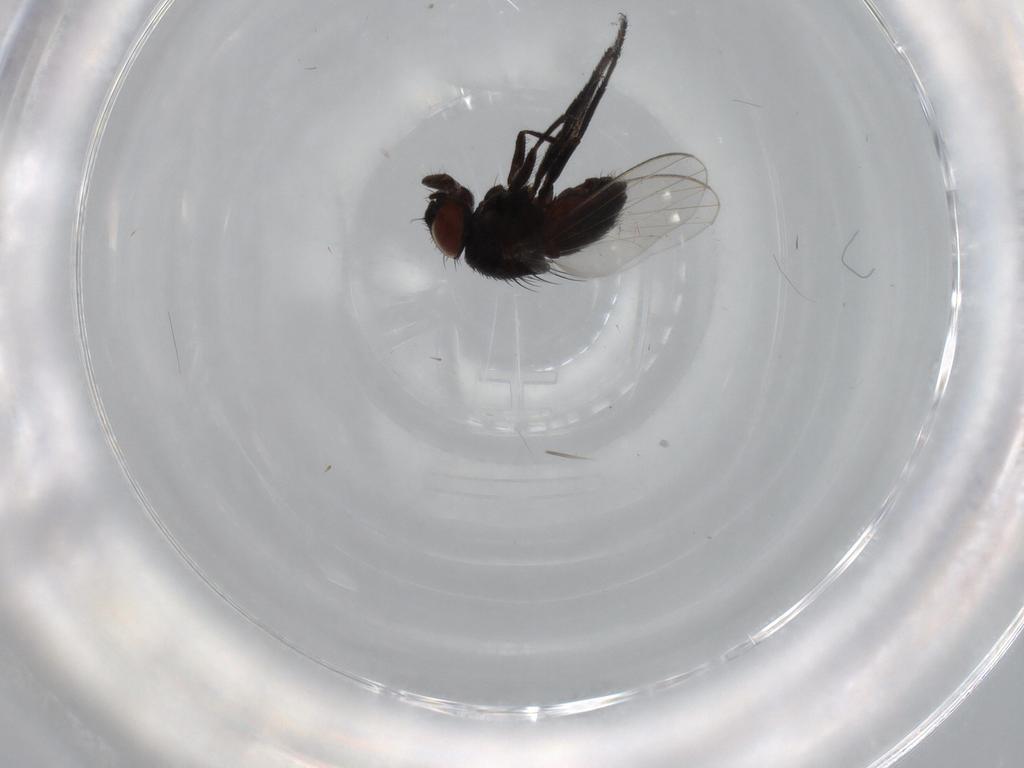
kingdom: Animalia
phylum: Arthropoda
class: Insecta
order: Diptera
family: Milichiidae
